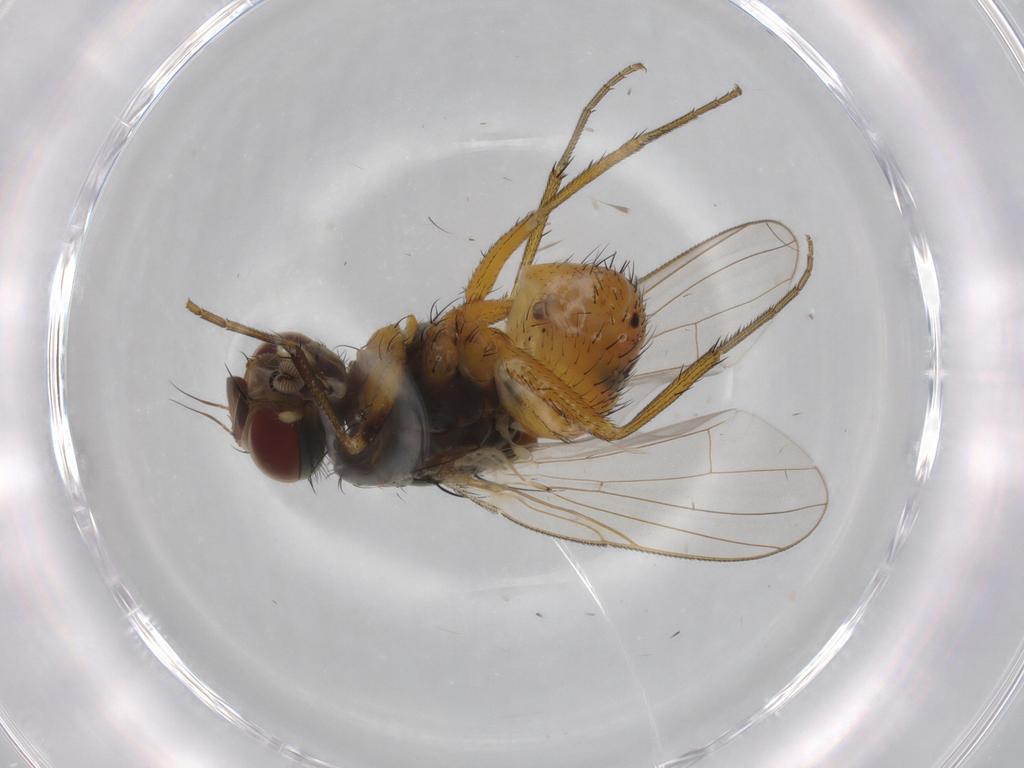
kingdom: Animalia
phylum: Arthropoda
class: Insecta
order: Diptera
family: Muscidae
